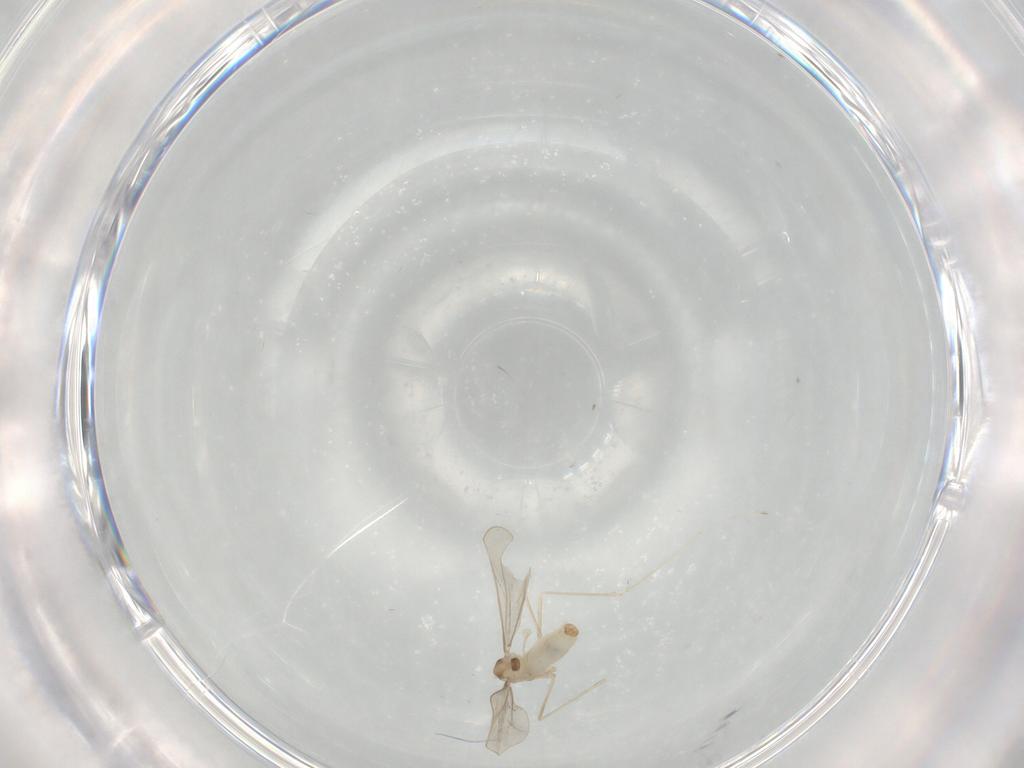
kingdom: Animalia
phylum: Arthropoda
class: Insecta
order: Diptera
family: Cecidomyiidae
